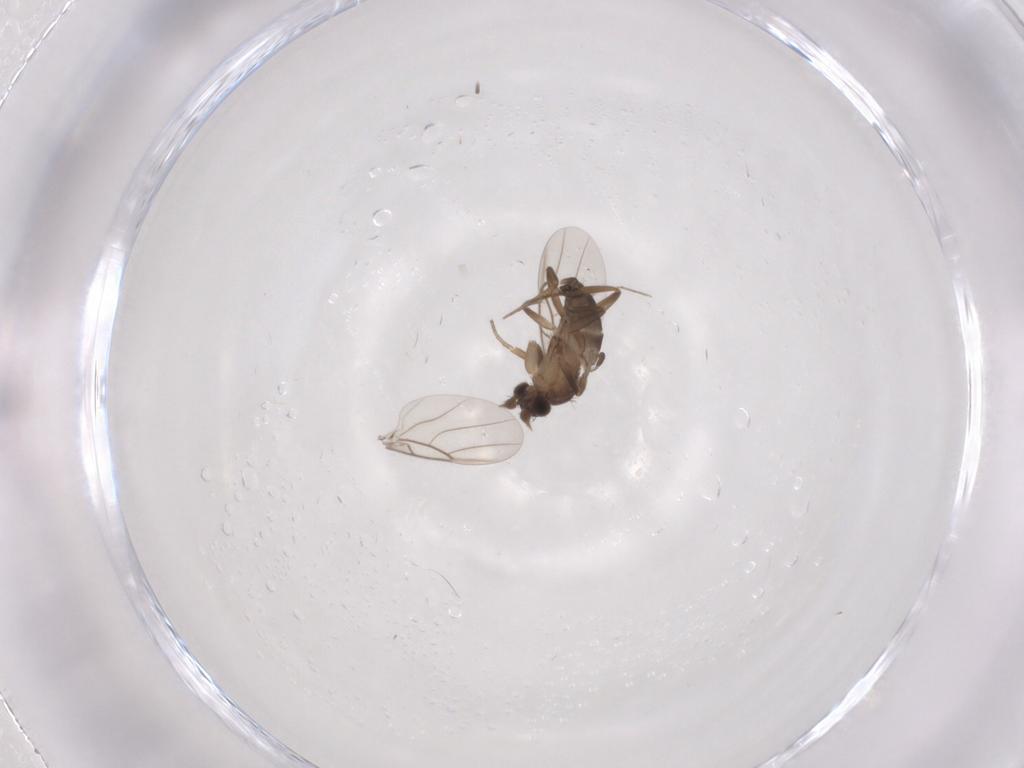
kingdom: Animalia
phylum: Arthropoda
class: Insecta
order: Diptera
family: Phoridae
